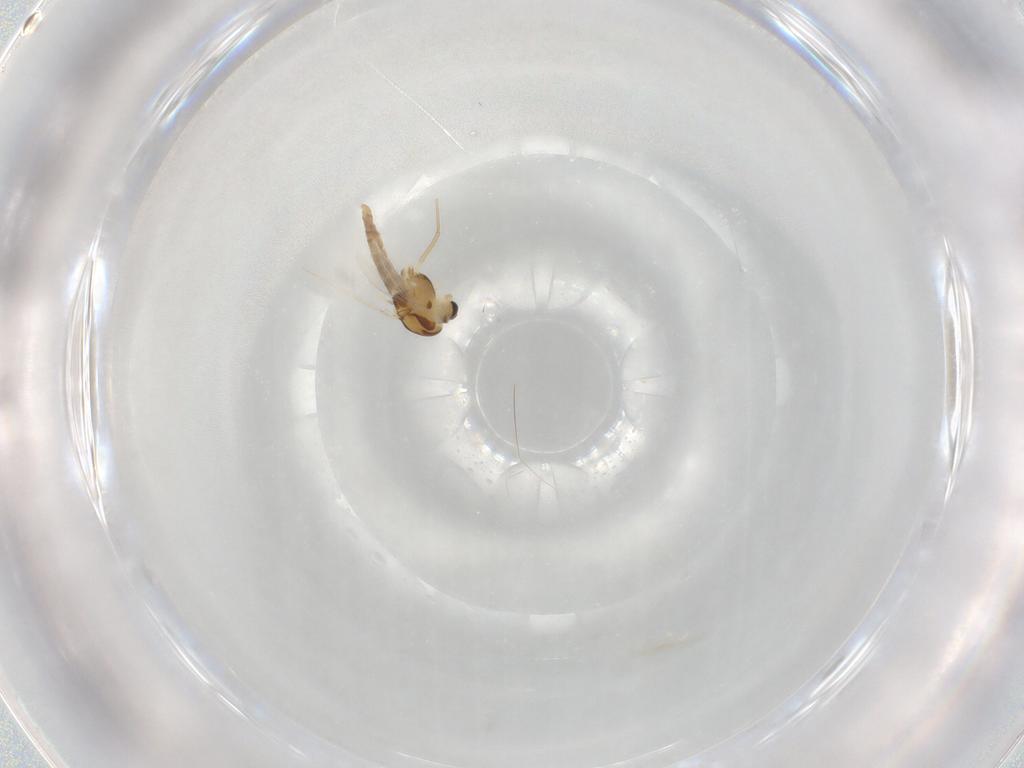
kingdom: Animalia
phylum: Arthropoda
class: Insecta
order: Diptera
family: Chironomidae
